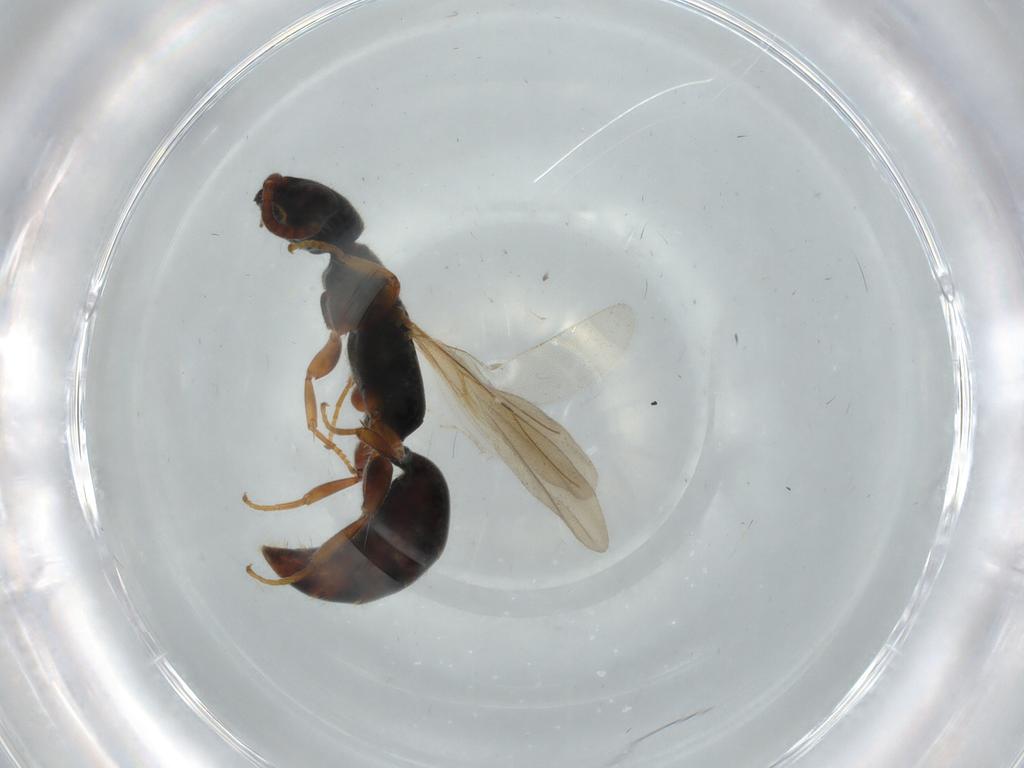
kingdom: Animalia
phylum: Arthropoda
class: Insecta
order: Hymenoptera
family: Bethylidae
